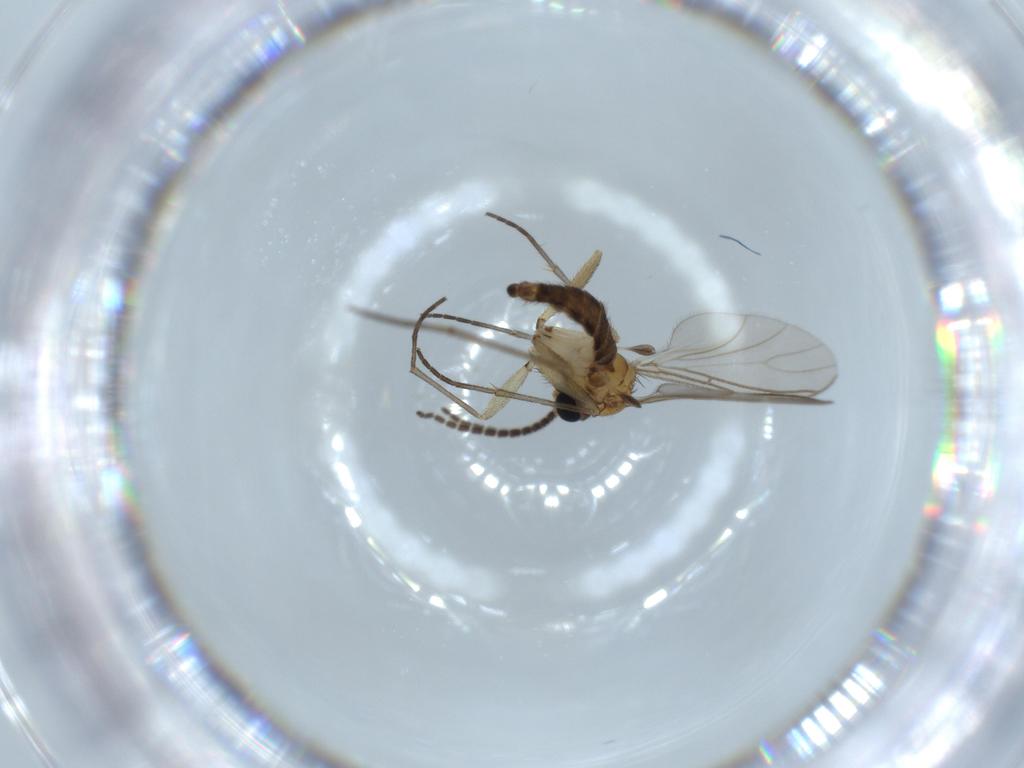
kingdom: Animalia
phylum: Arthropoda
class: Insecta
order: Diptera
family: Sciaridae
